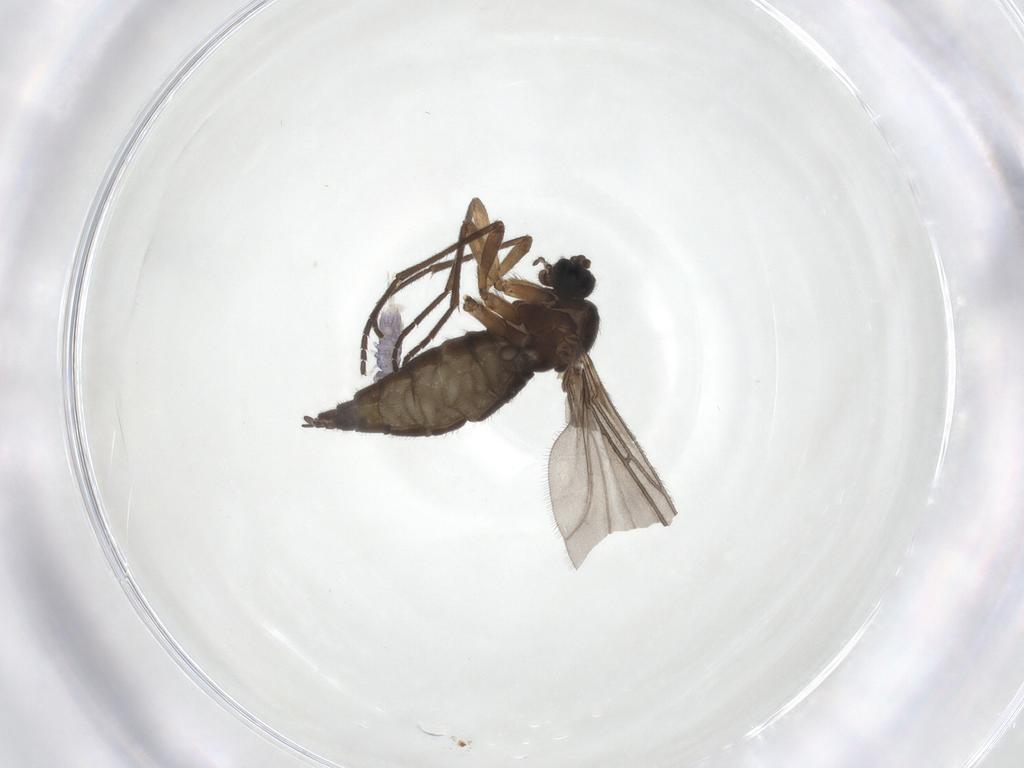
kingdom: Animalia
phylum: Arthropoda
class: Insecta
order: Diptera
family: Sciaridae
